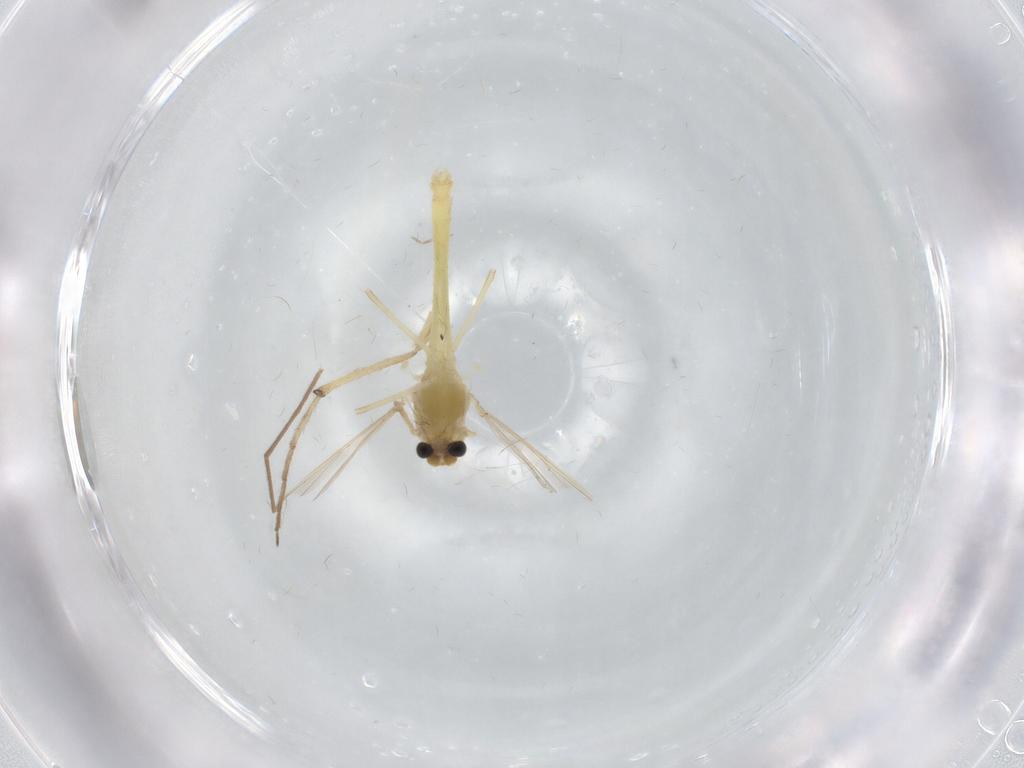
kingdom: Animalia
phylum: Arthropoda
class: Insecta
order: Diptera
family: Chironomidae
